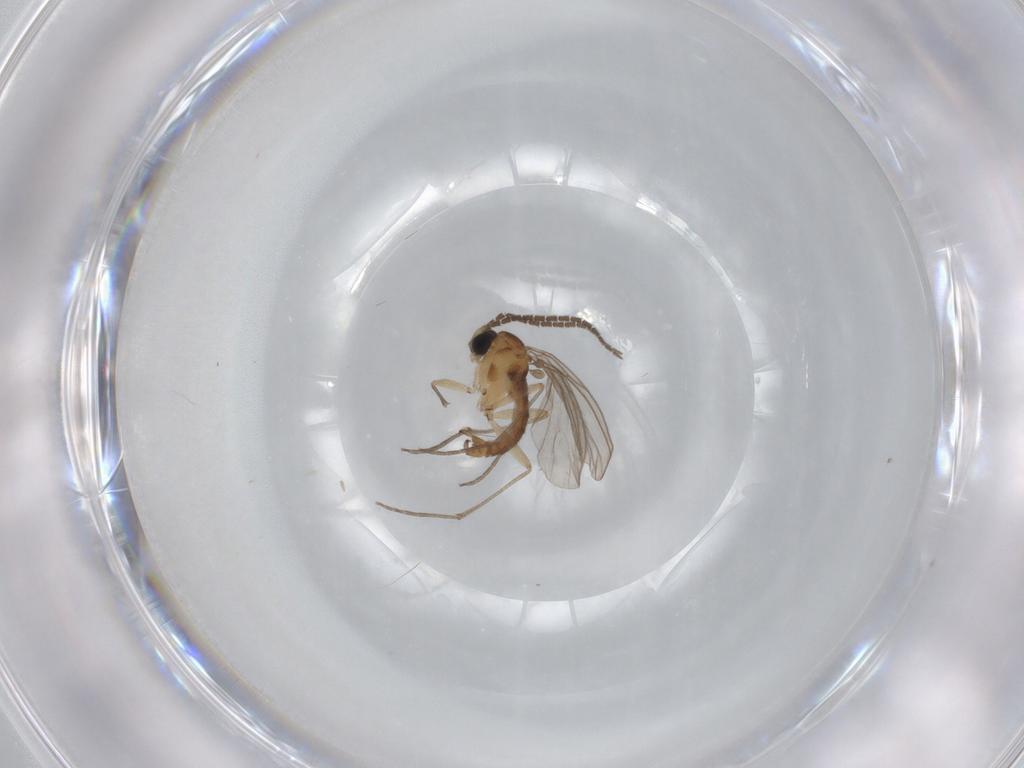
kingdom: Animalia
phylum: Arthropoda
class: Insecta
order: Diptera
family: Sciaridae
